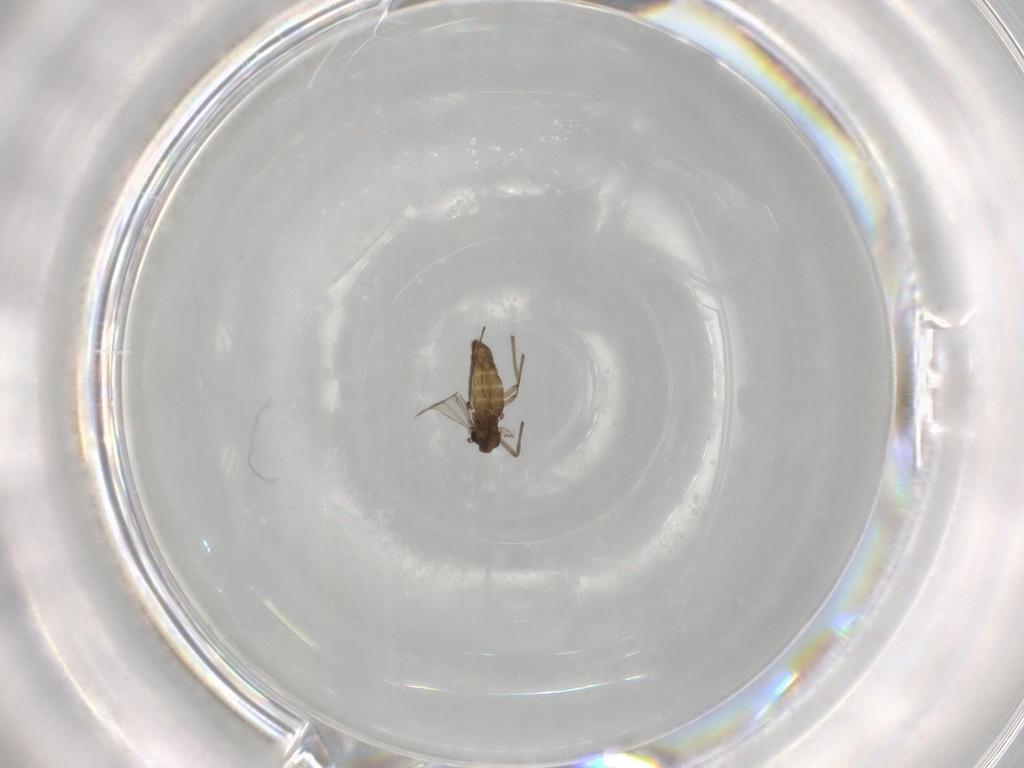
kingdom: Animalia
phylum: Arthropoda
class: Insecta
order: Diptera
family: Chironomidae
